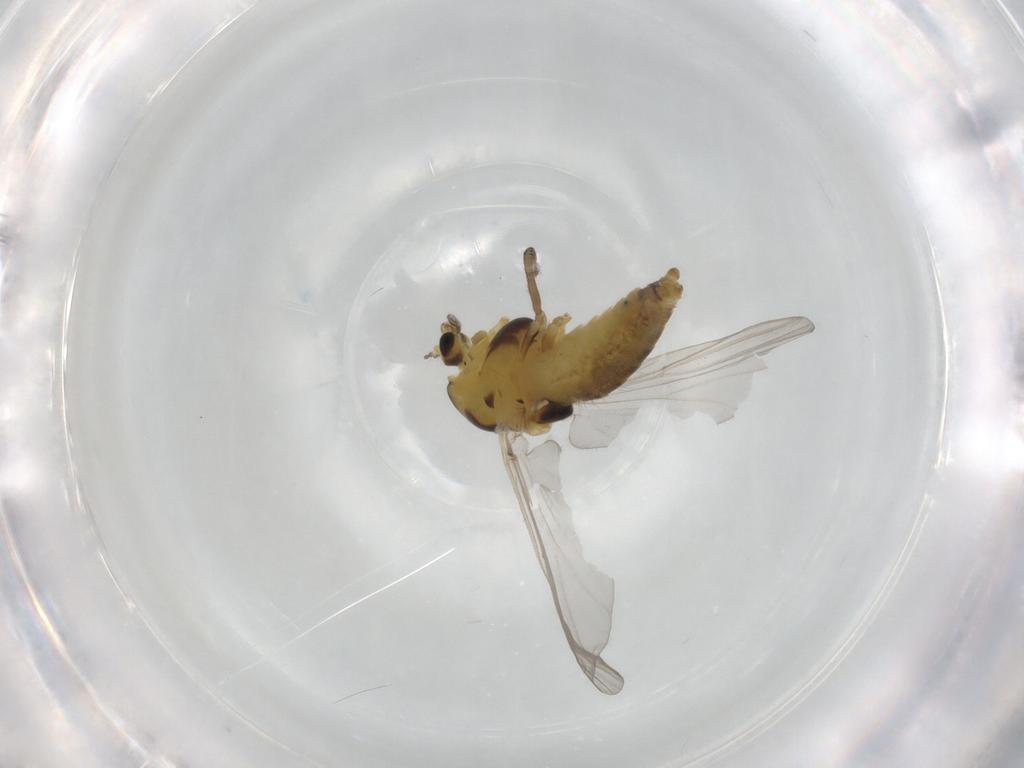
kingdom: Animalia
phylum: Arthropoda
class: Insecta
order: Diptera
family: Chironomidae
